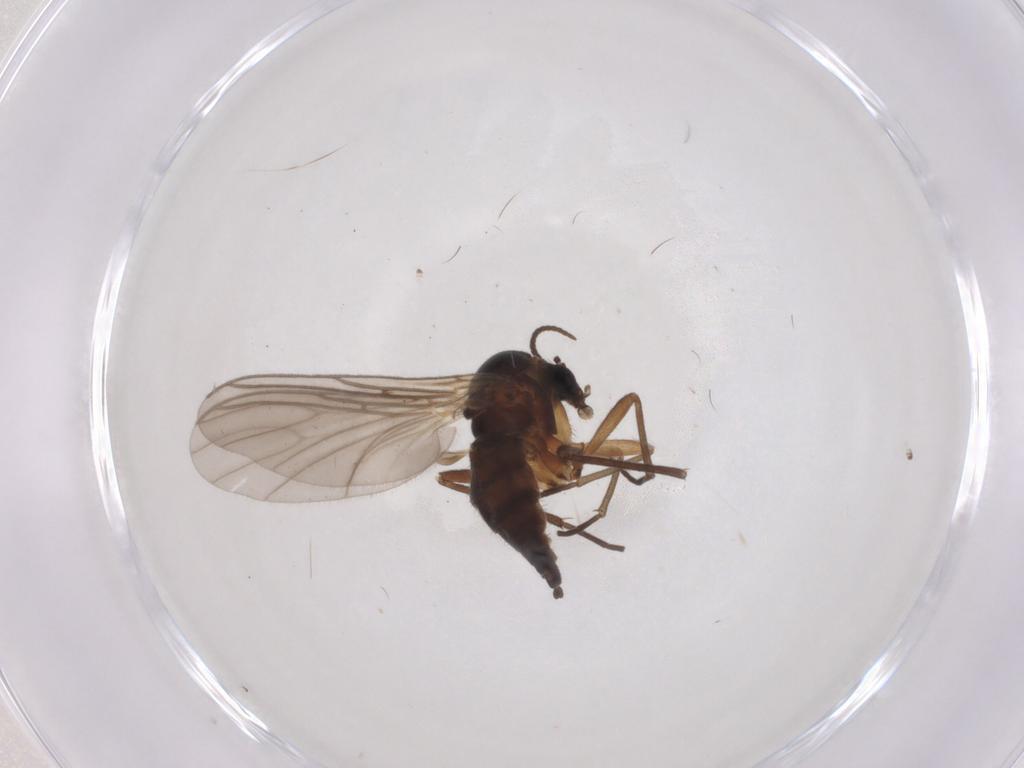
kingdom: Animalia
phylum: Arthropoda
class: Insecta
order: Diptera
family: Sciaridae
